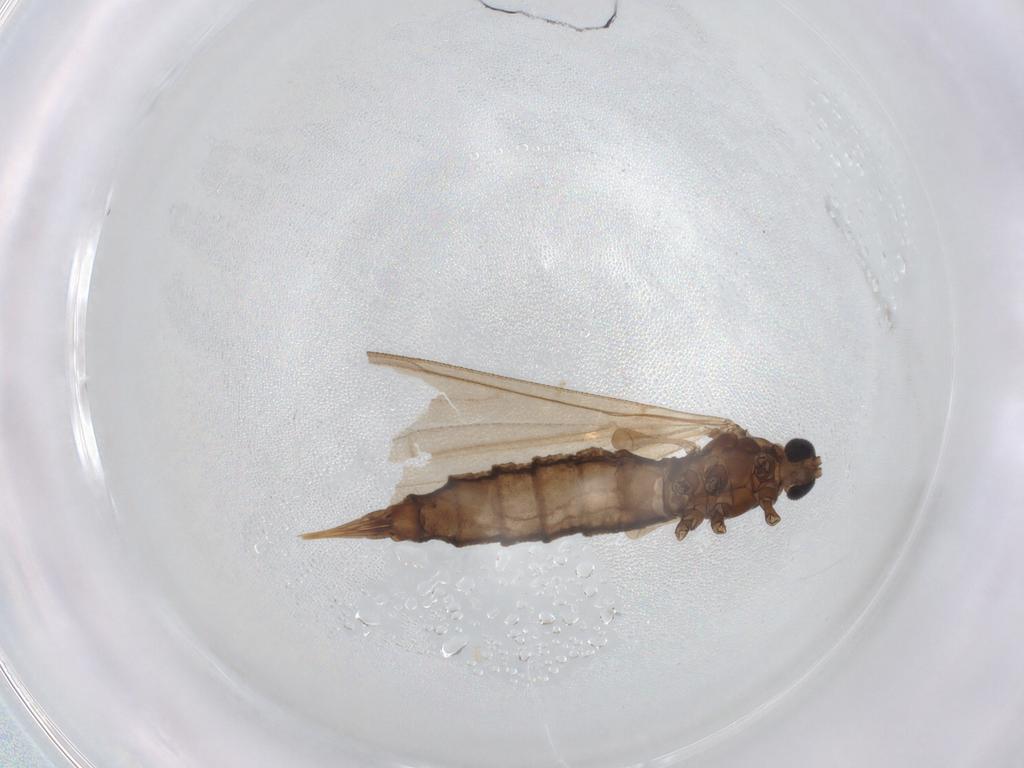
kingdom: Animalia
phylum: Arthropoda
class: Insecta
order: Diptera
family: Limoniidae
